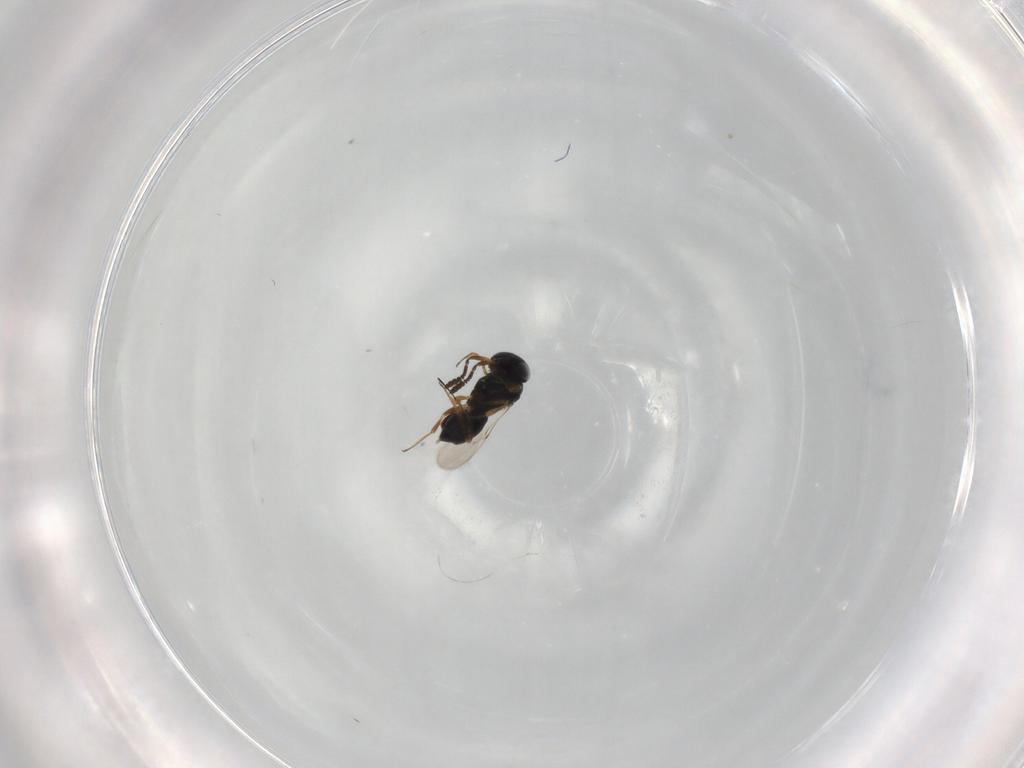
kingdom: Animalia
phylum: Arthropoda
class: Insecta
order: Hymenoptera
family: Scelionidae
